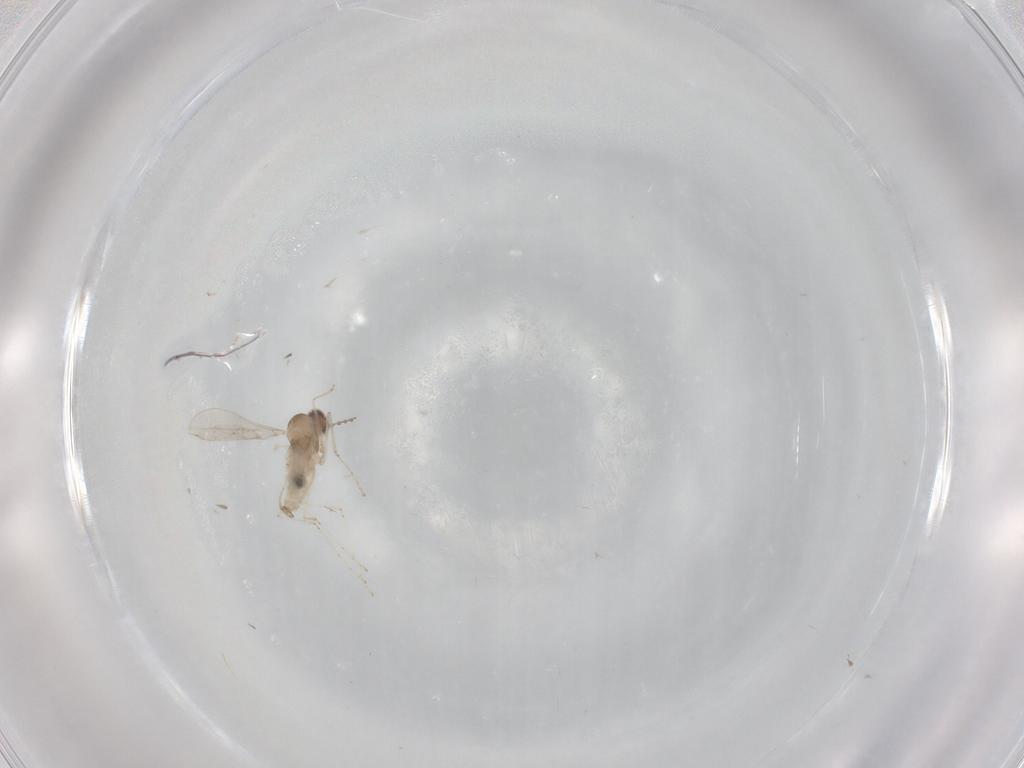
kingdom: Animalia
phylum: Arthropoda
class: Insecta
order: Diptera
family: Cecidomyiidae
